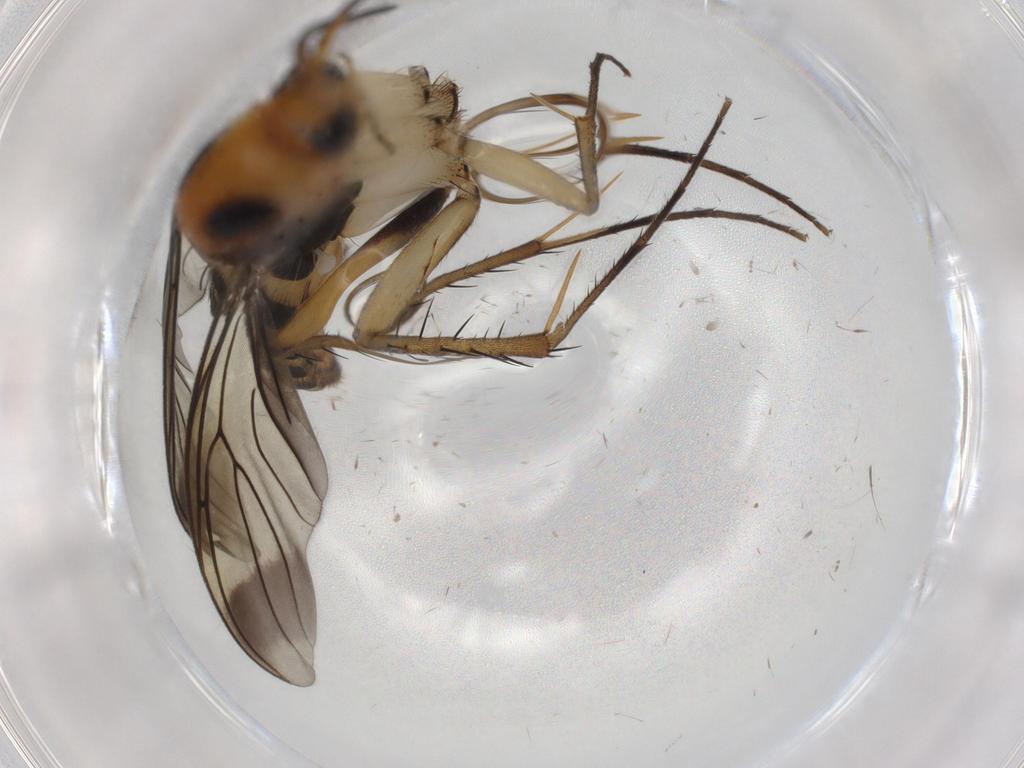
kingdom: Animalia
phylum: Arthropoda
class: Insecta
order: Diptera
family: Mycetophilidae
